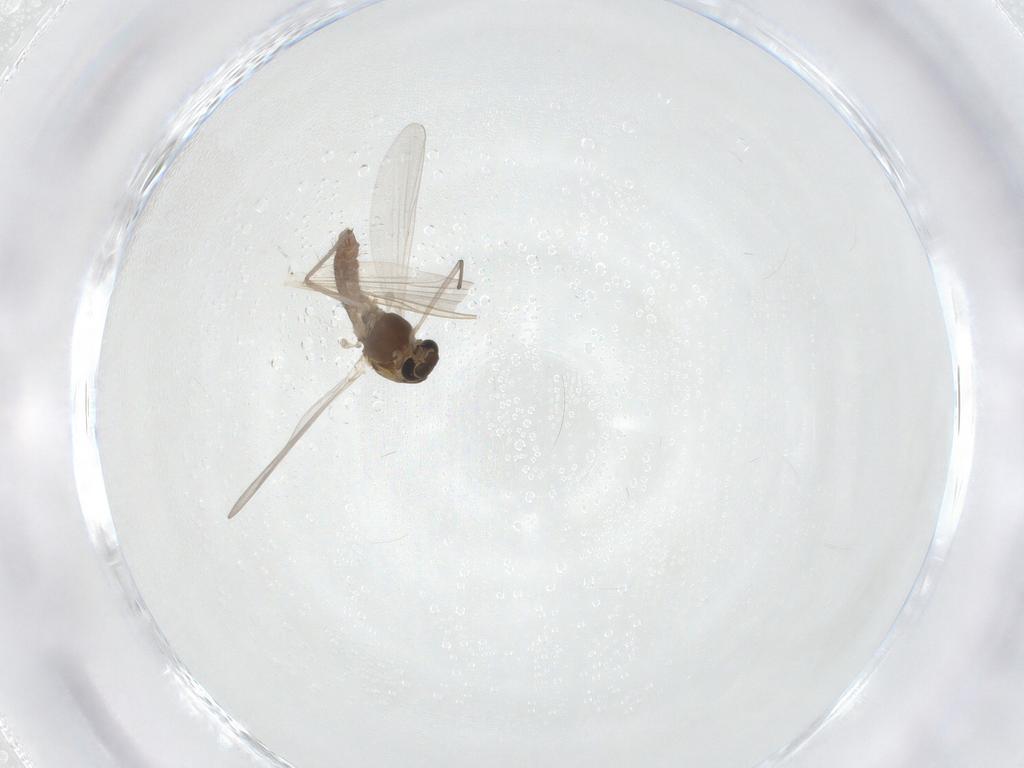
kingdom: Animalia
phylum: Arthropoda
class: Insecta
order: Diptera
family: Chironomidae
